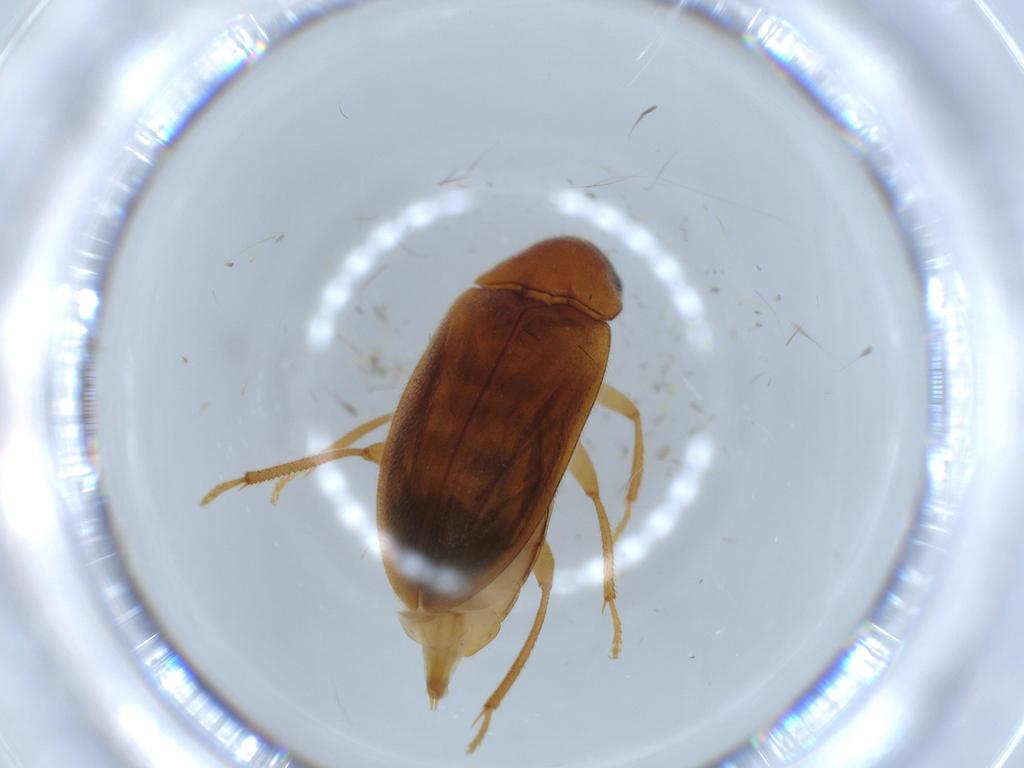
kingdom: Animalia
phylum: Arthropoda
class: Insecta
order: Coleoptera
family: Ptilodactylidae
